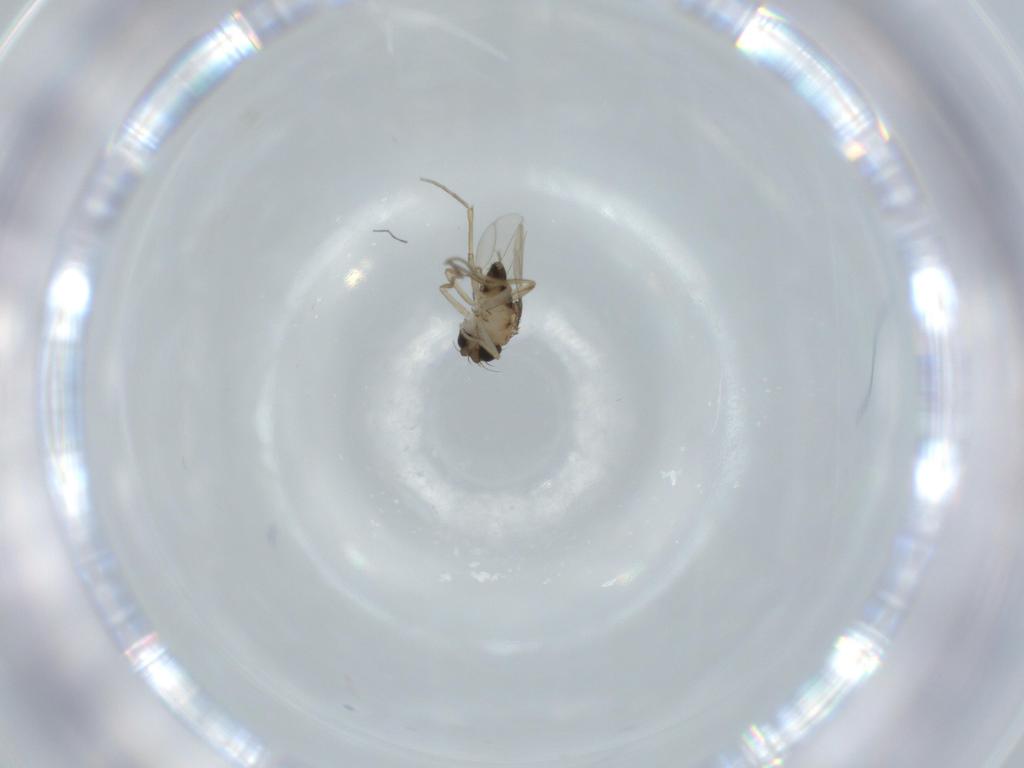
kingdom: Animalia
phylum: Arthropoda
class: Insecta
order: Diptera
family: Phoridae
